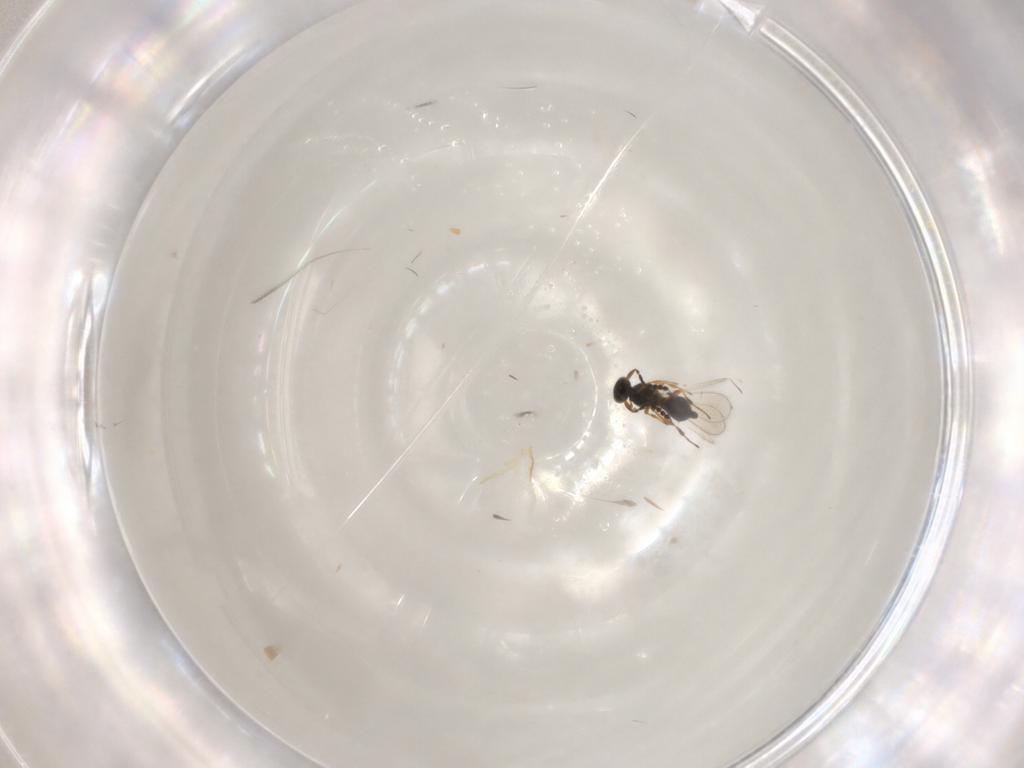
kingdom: Animalia
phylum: Arthropoda
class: Insecta
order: Hymenoptera
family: Platygastridae
